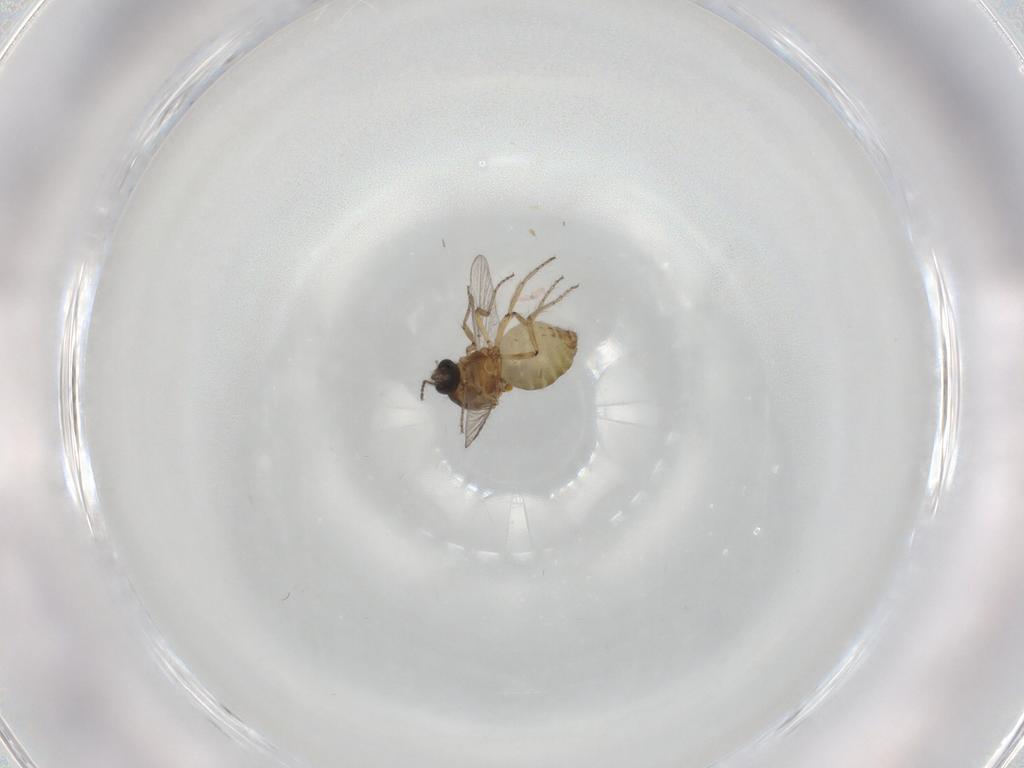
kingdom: Animalia
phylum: Arthropoda
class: Insecta
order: Diptera
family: Ceratopogonidae
